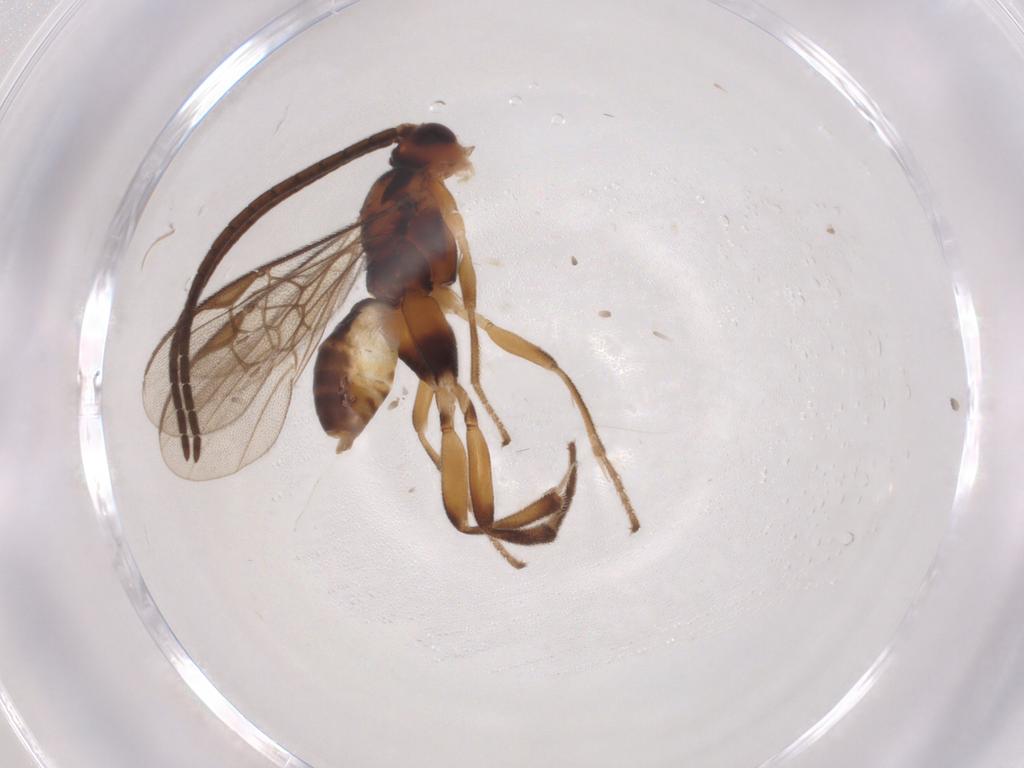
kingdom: Animalia
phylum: Arthropoda
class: Insecta
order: Hymenoptera
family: Braconidae
